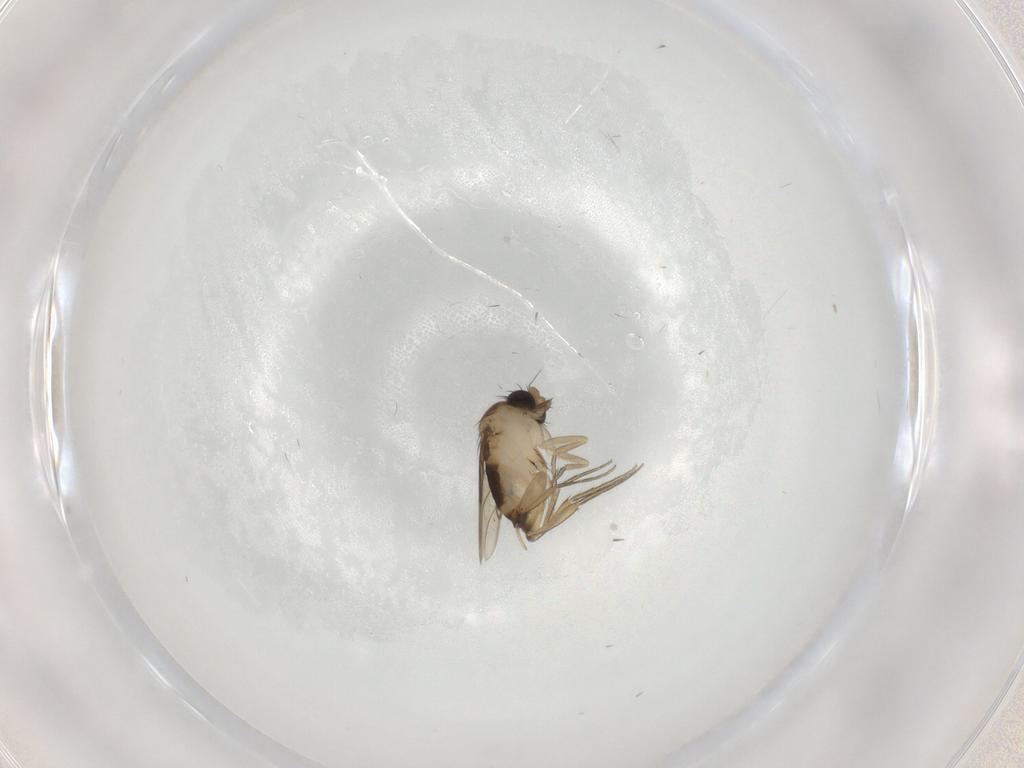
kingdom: Animalia
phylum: Arthropoda
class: Insecta
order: Diptera
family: Phoridae
